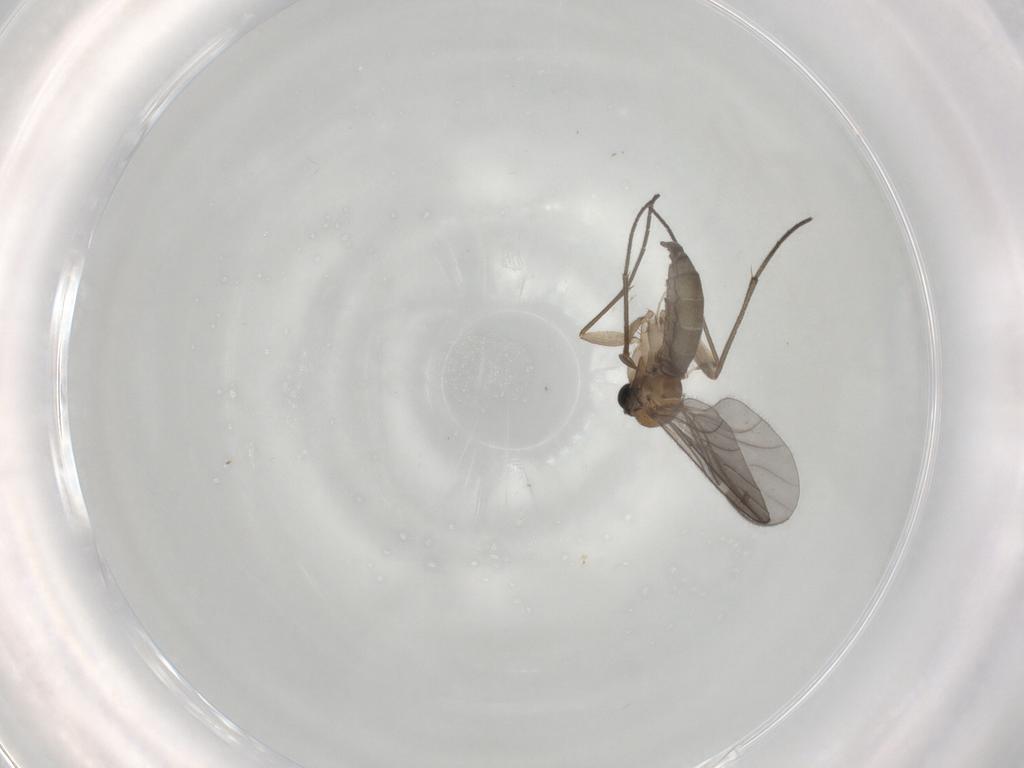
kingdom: Animalia
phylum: Arthropoda
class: Insecta
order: Diptera
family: Sciaridae
